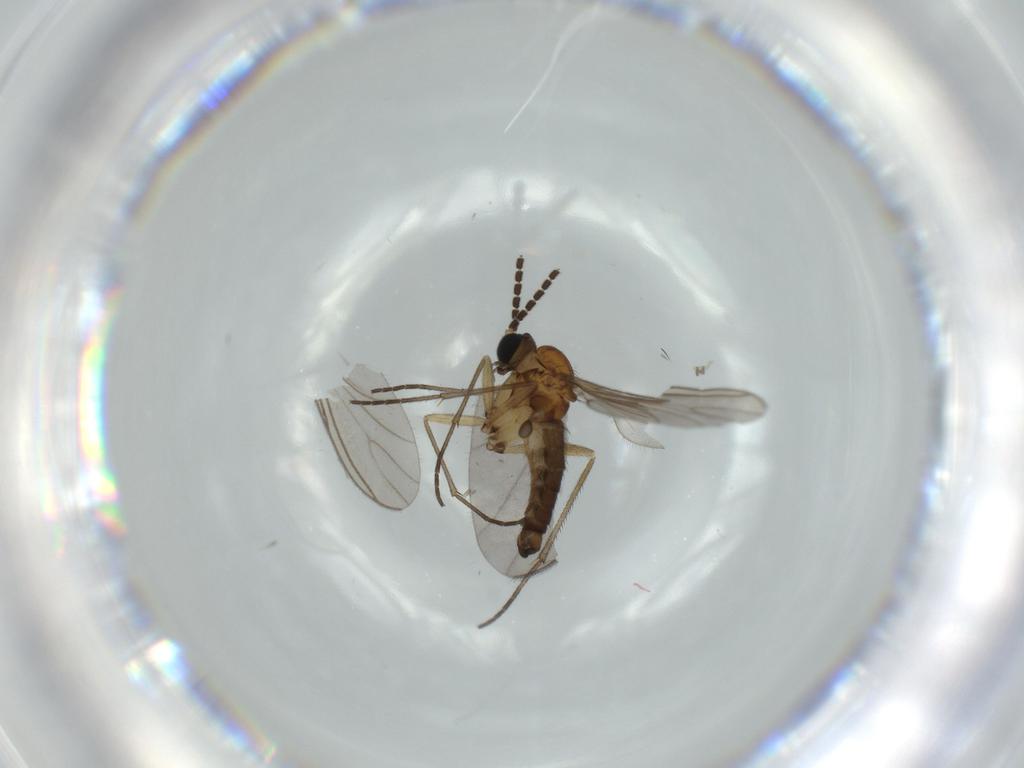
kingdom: Animalia
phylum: Arthropoda
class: Insecta
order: Diptera
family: Sciaridae
